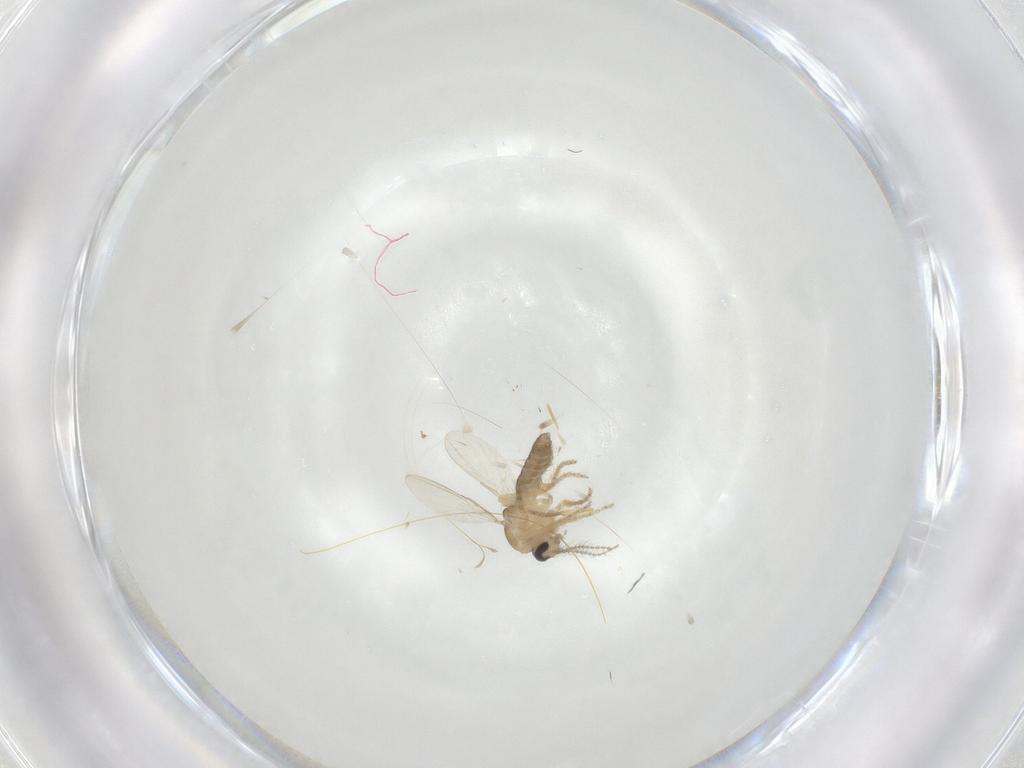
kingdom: Animalia
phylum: Arthropoda
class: Insecta
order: Diptera
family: Ceratopogonidae
